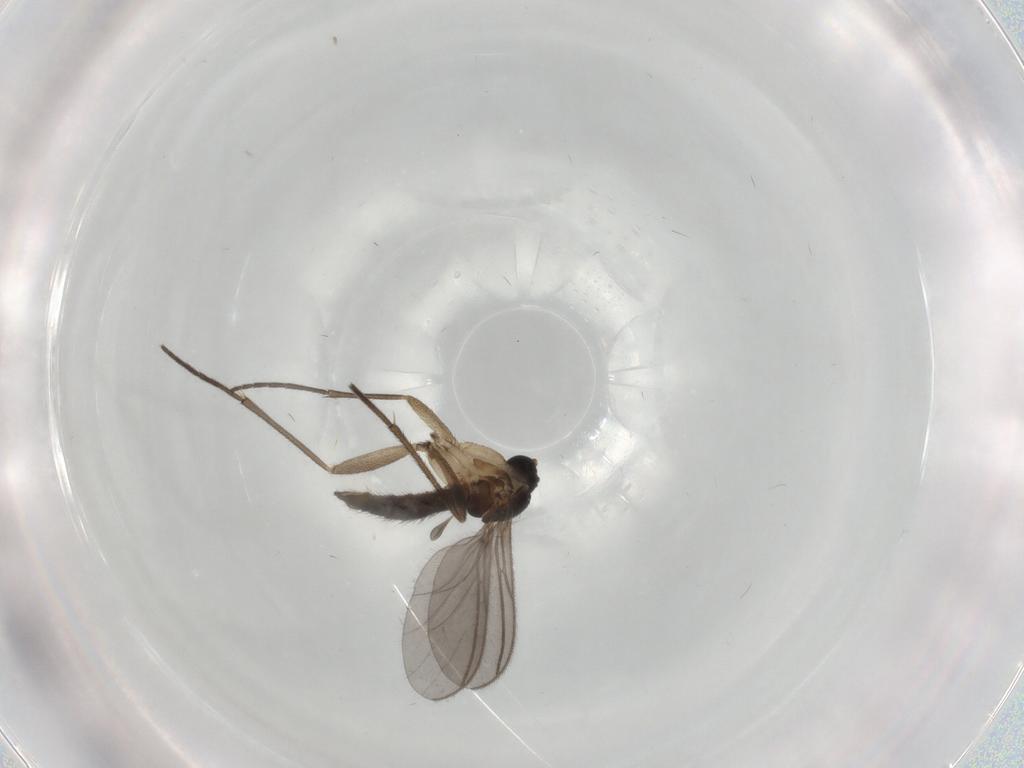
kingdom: Animalia
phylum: Arthropoda
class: Insecta
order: Diptera
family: Sciaridae
